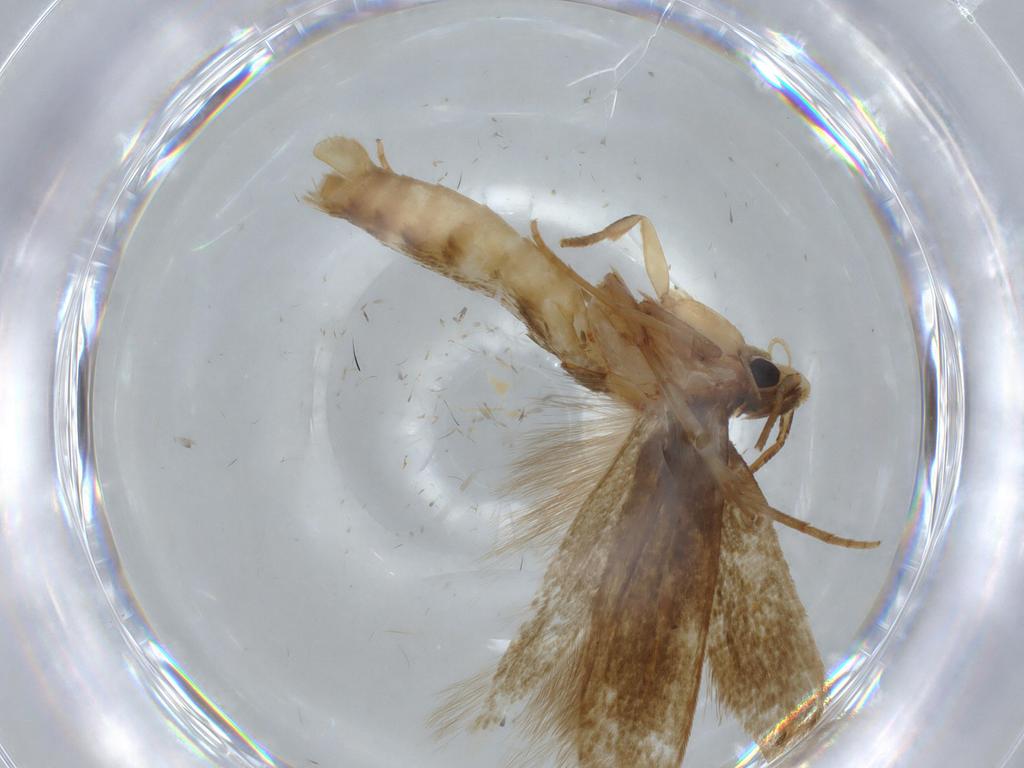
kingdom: Animalia
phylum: Arthropoda
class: Insecta
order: Lepidoptera
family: Tineidae
